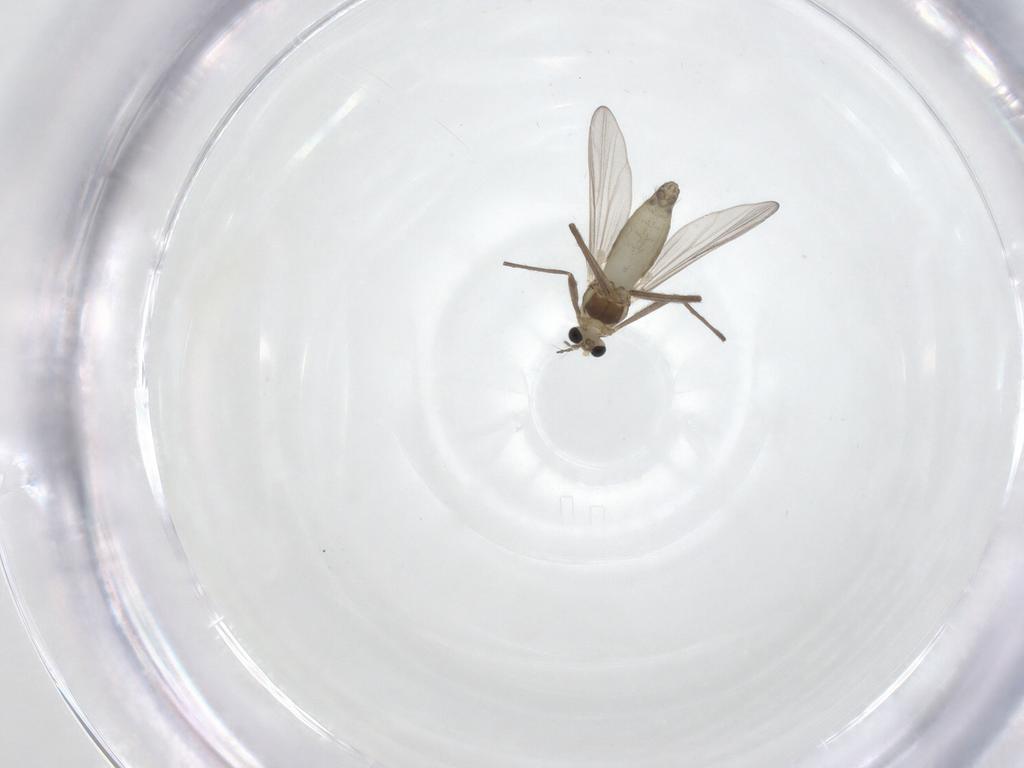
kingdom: Animalia
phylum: Arthropoda
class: Insecta
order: Diptera
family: Chironomidae
